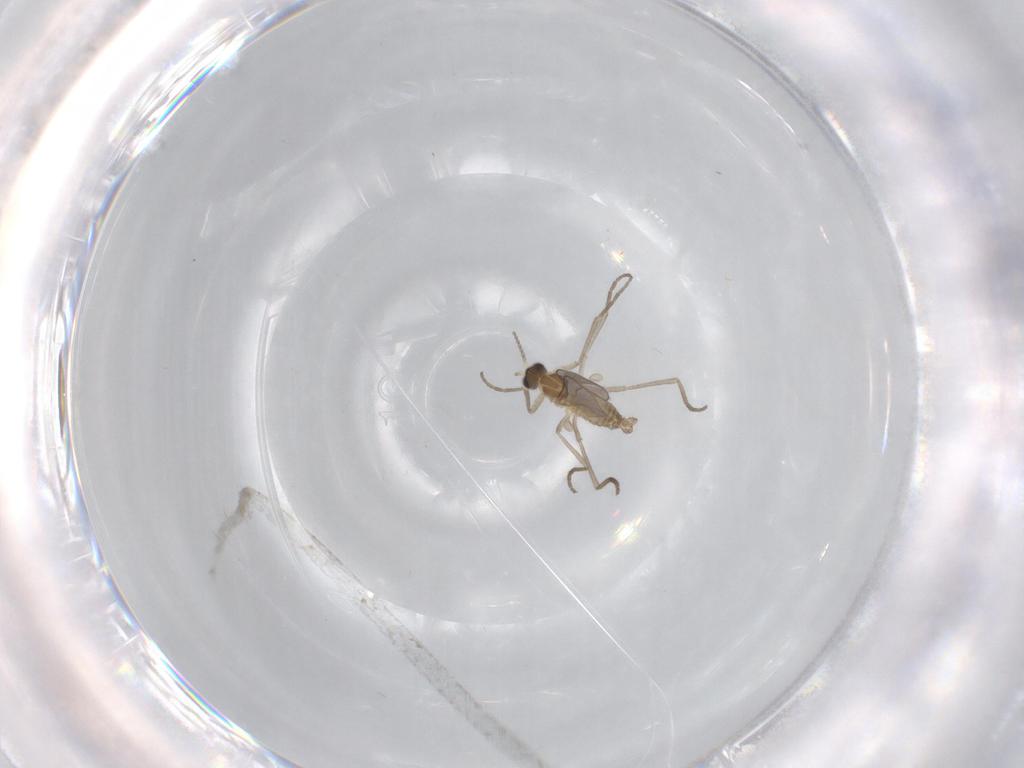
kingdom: Animalia
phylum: Arthropoda
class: Insecta
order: Diptera
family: Cecidomyiidae
